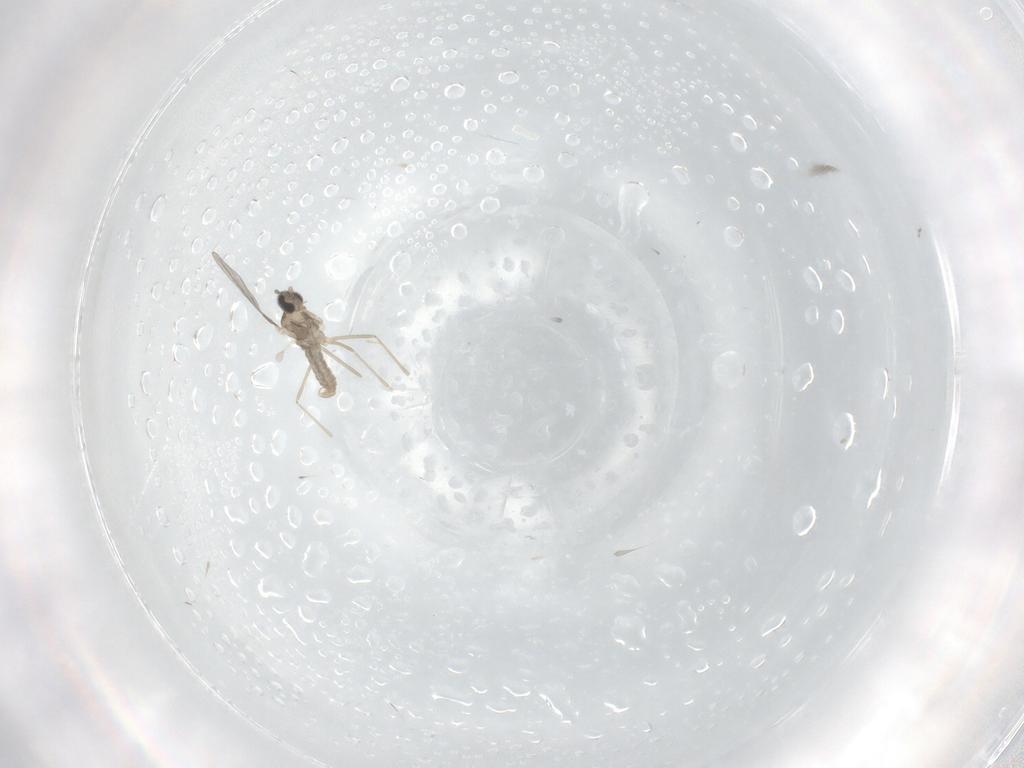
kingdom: Animalia
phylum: Arthropoda
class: Insecta
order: Diptera
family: Cecidomyiidae
